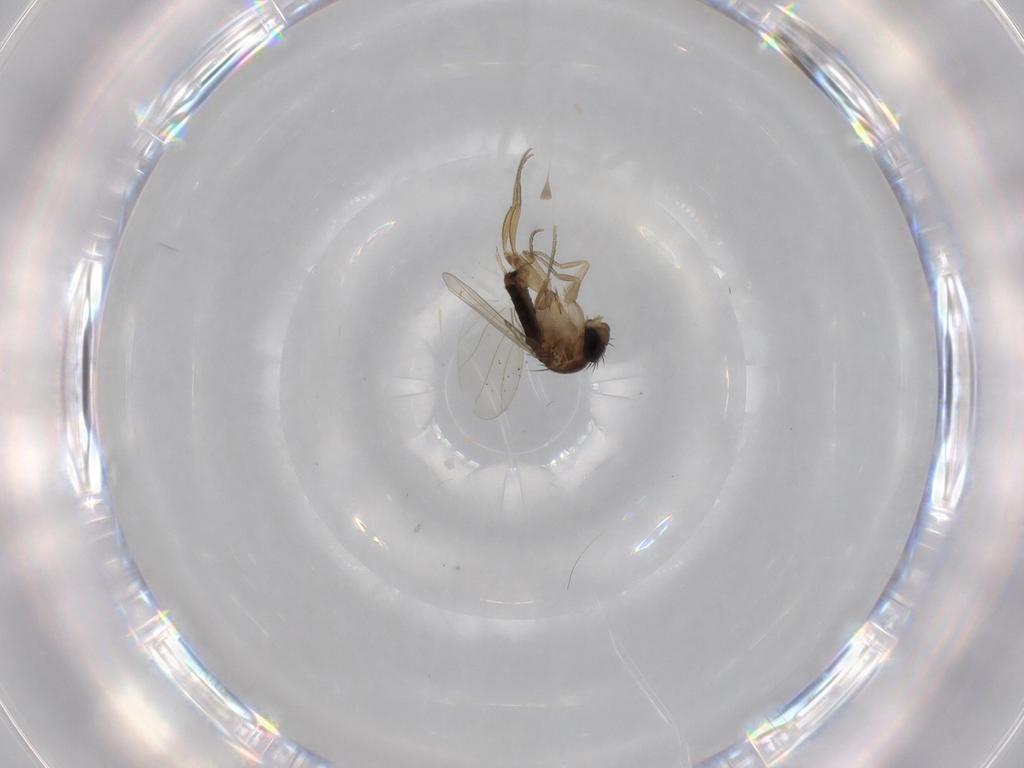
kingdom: Animalia
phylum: Arthropoda
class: Insecta
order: Diptera
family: Phoridae
